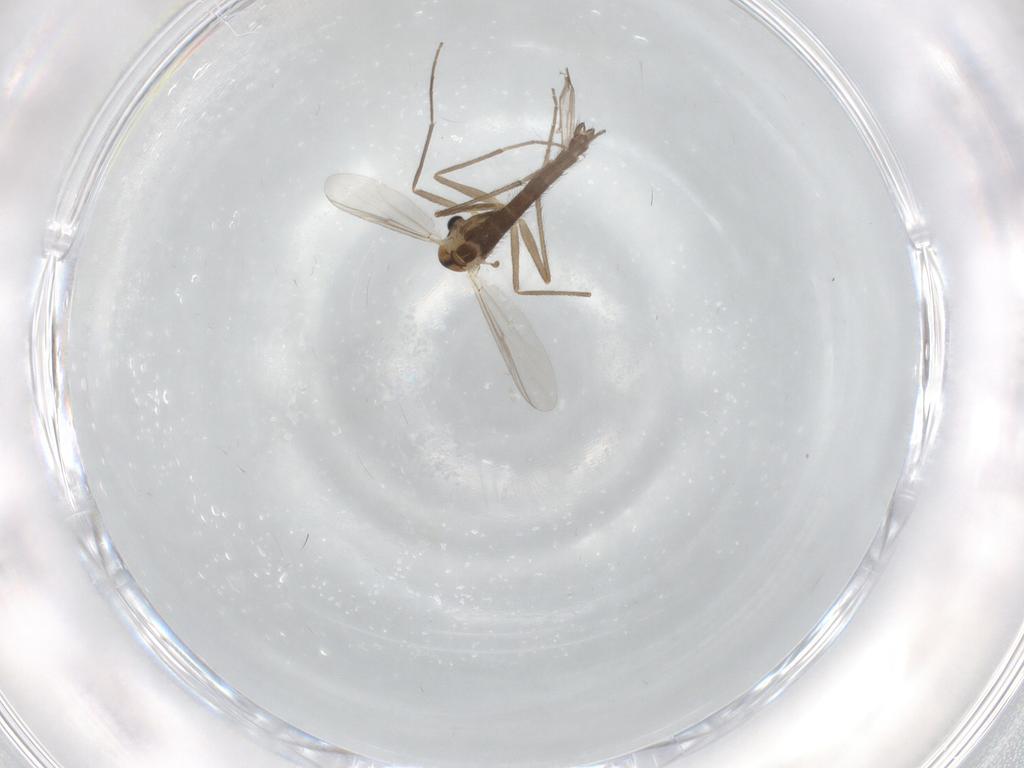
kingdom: Animalia
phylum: Arthropoda
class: Insecta
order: Diptera
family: Chironomidae
